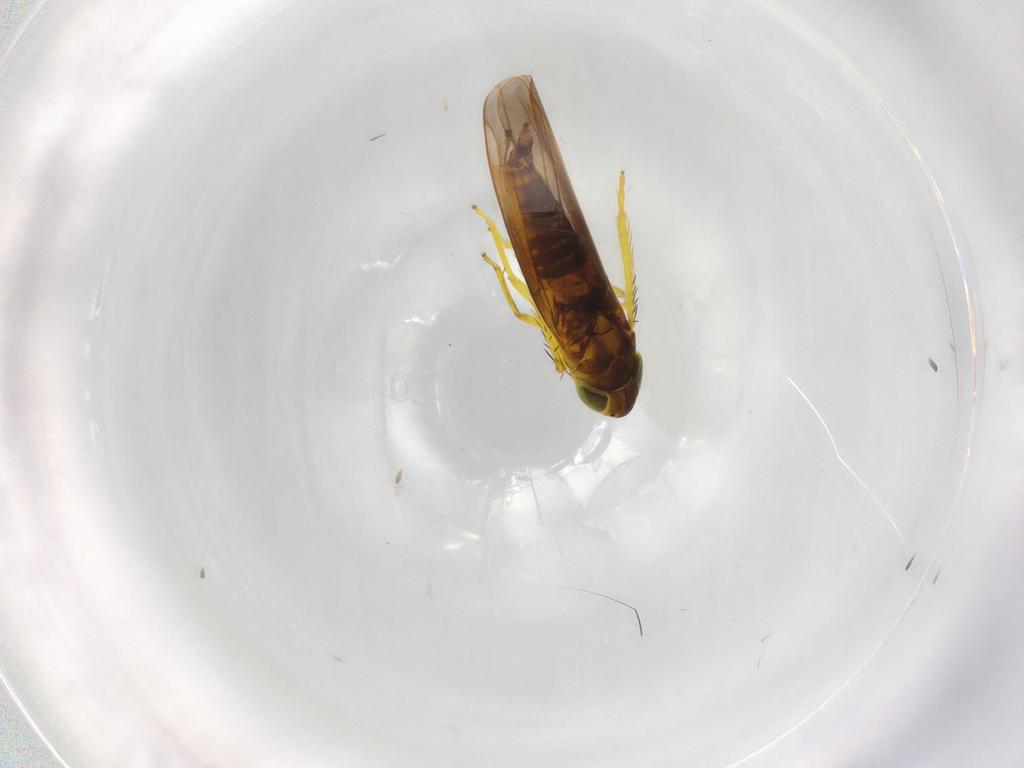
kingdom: Animalia
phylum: Arthropoda
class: Insecta
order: Hemiptera
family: Cicadellidae
